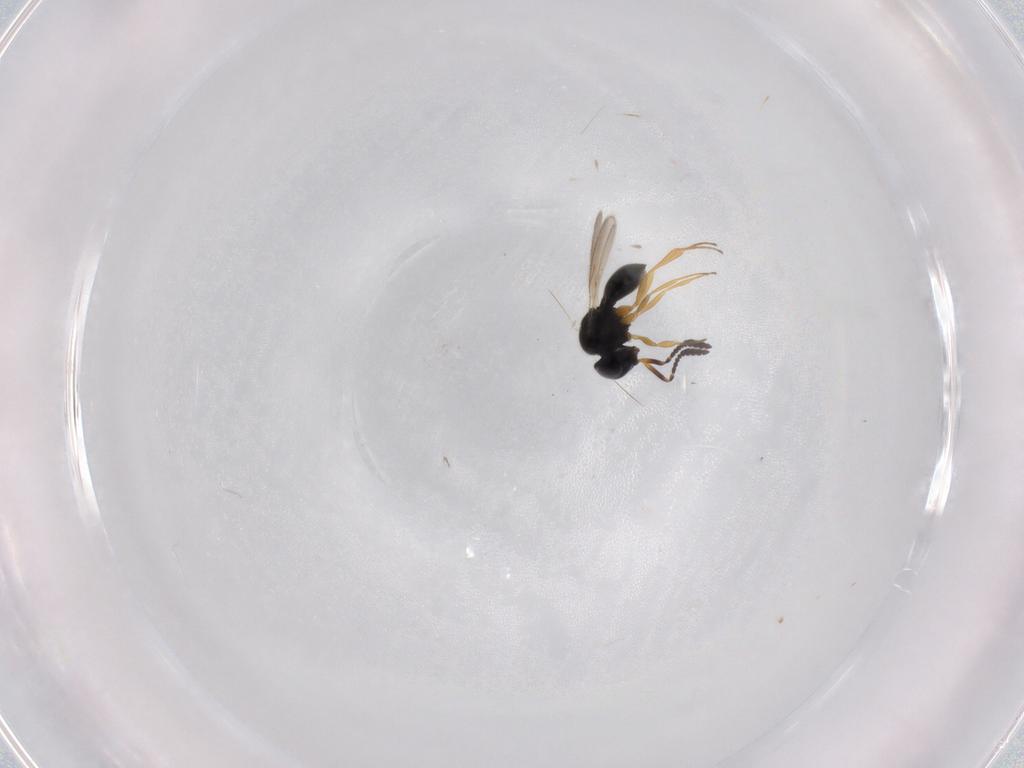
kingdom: Animalia
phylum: Arthropoda
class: Insecta
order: Hymenoptera
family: Scelionidae
